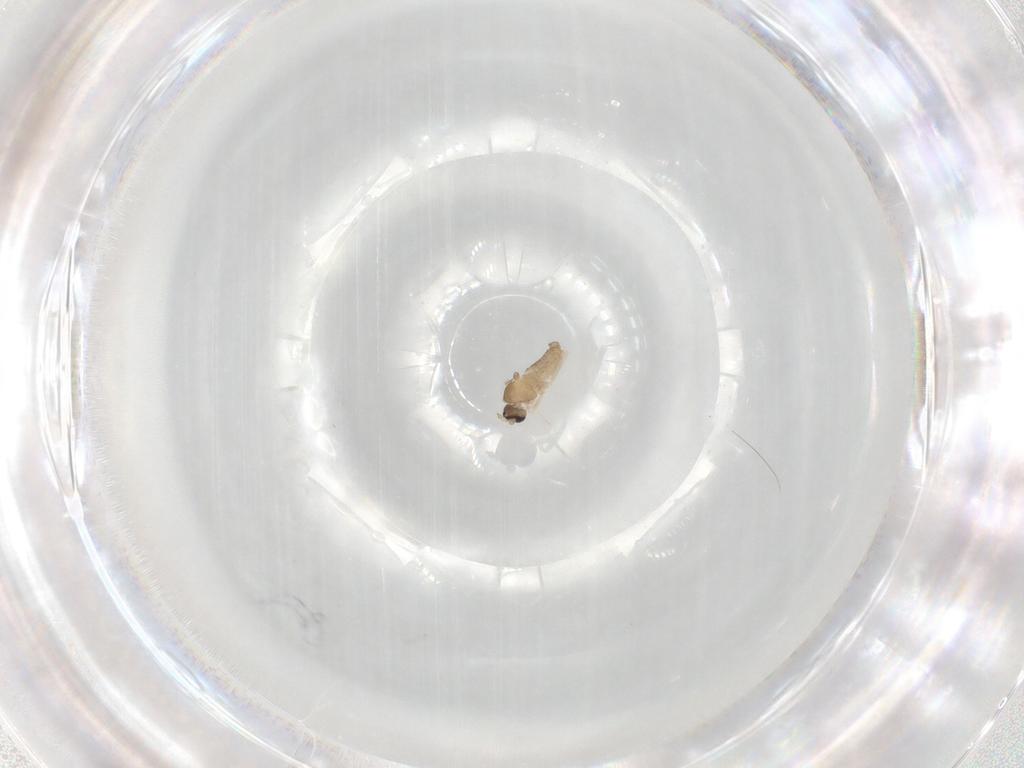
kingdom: Animalia
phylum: Arthropoda
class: Insecta
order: Diptera
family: Cecidomyiidae
